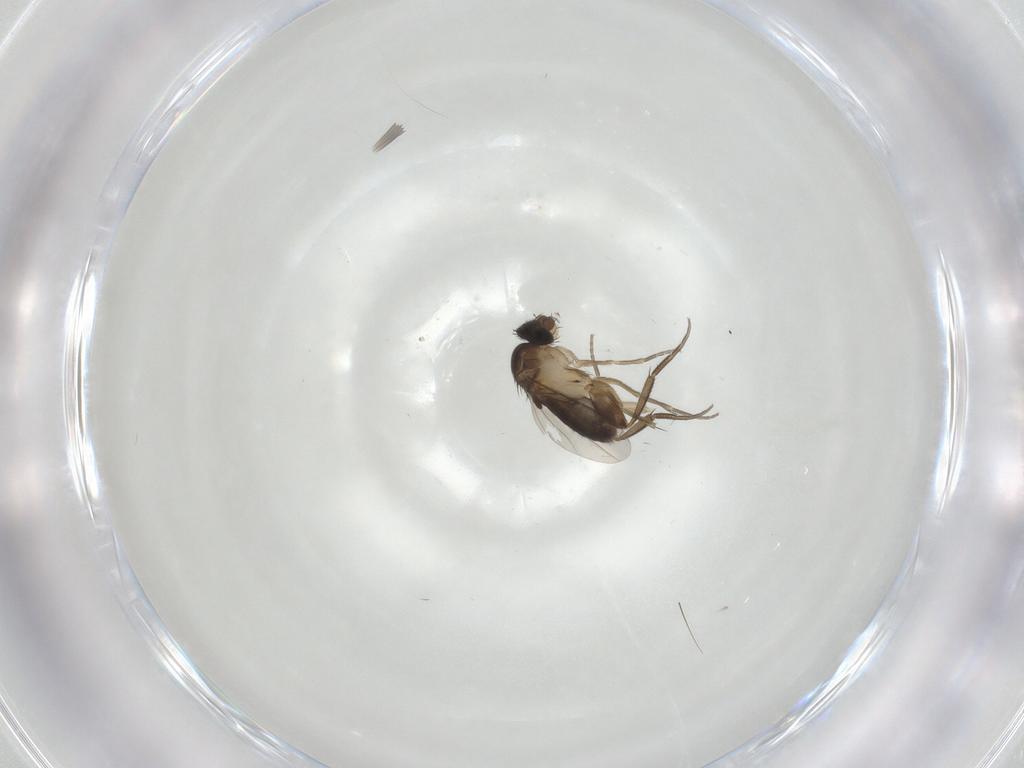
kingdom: Animalia
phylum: Arthropoda
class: Insecta
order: Diptera
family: Phoridae
